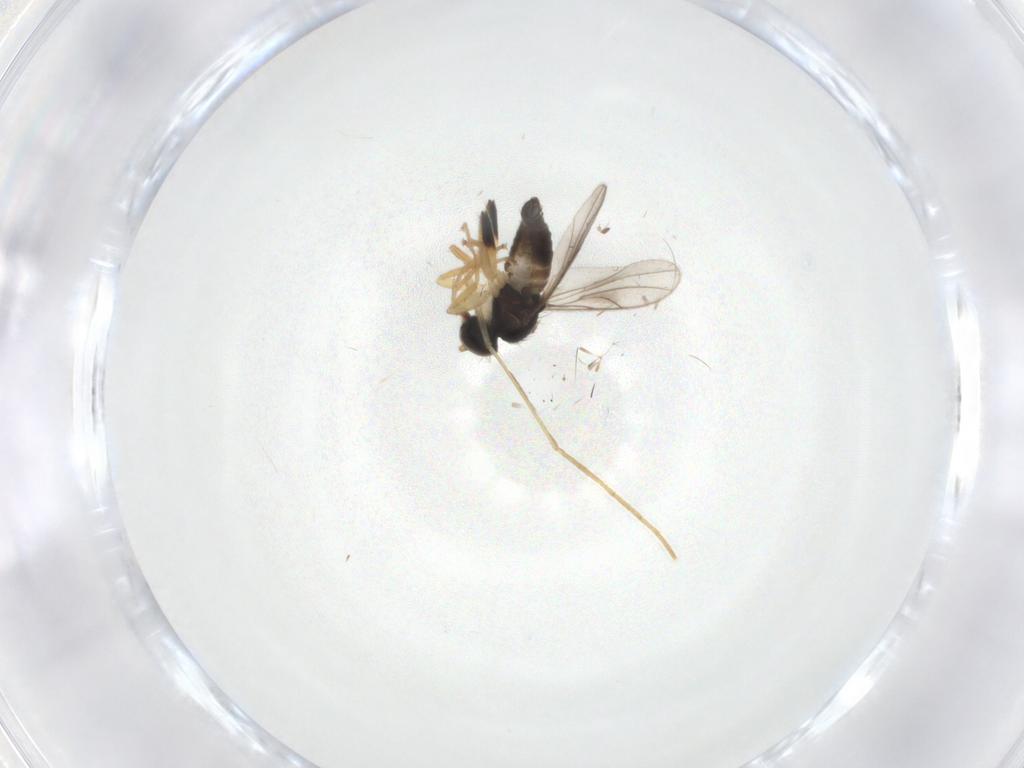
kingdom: Animalia
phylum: Arthropoda
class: Insecta
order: Diptera
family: Hybotidae
